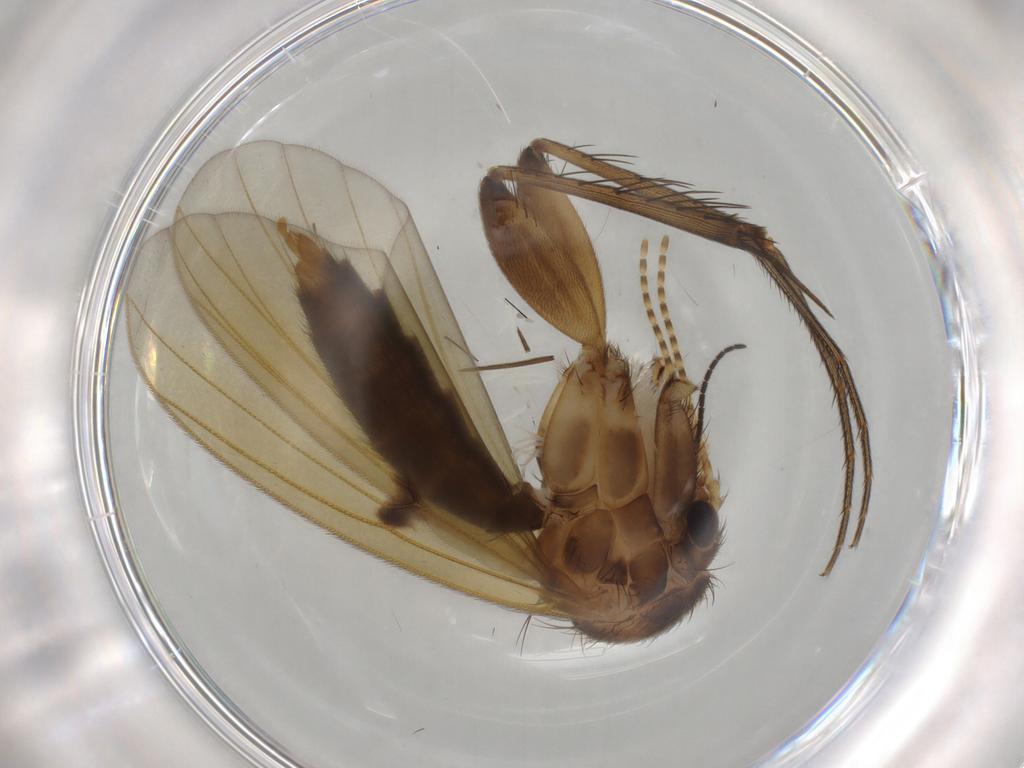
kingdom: Animalia
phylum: Arthropoda
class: Insecta
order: Diptera
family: Mycetophilidae
